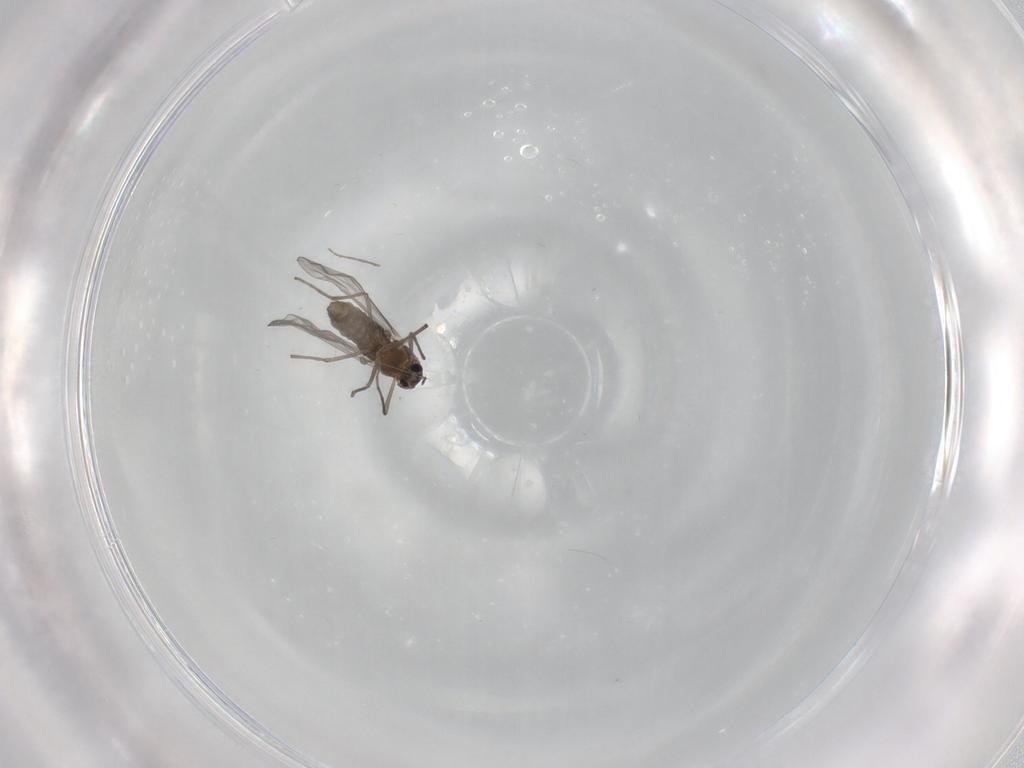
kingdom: Animalia
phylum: Arthropoda
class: Insecta
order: Diptera
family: Chironomidae
